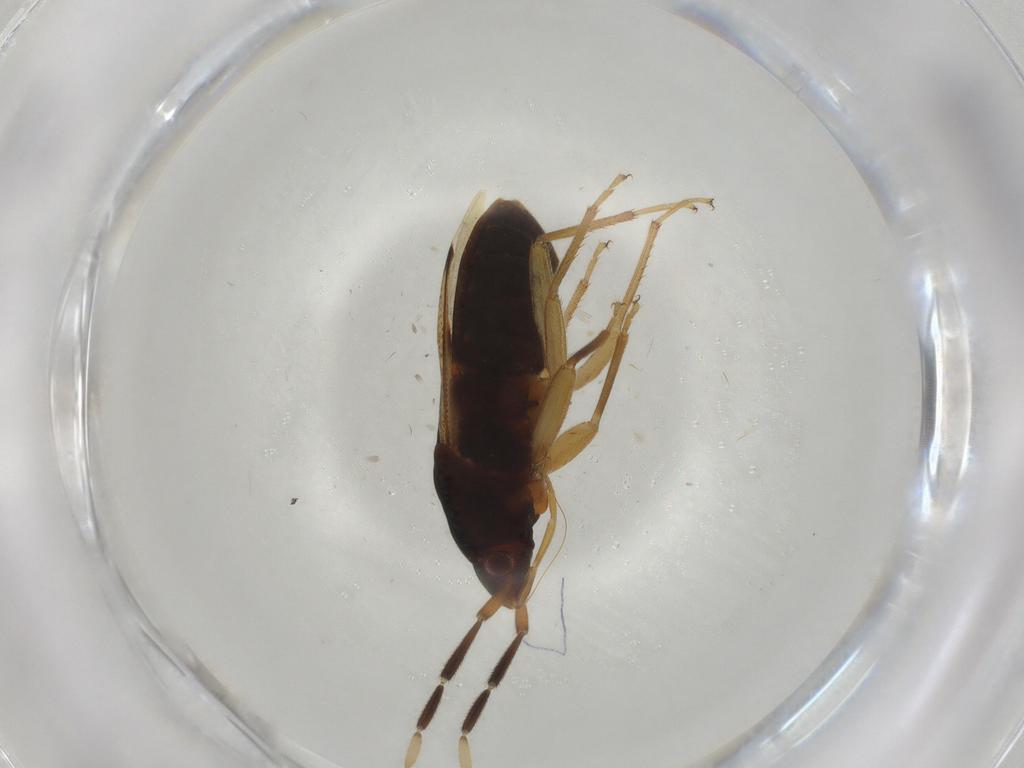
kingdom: Animalia
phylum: Arthropoda
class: Insecta
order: Hemiptera
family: Rhyparochromidae
